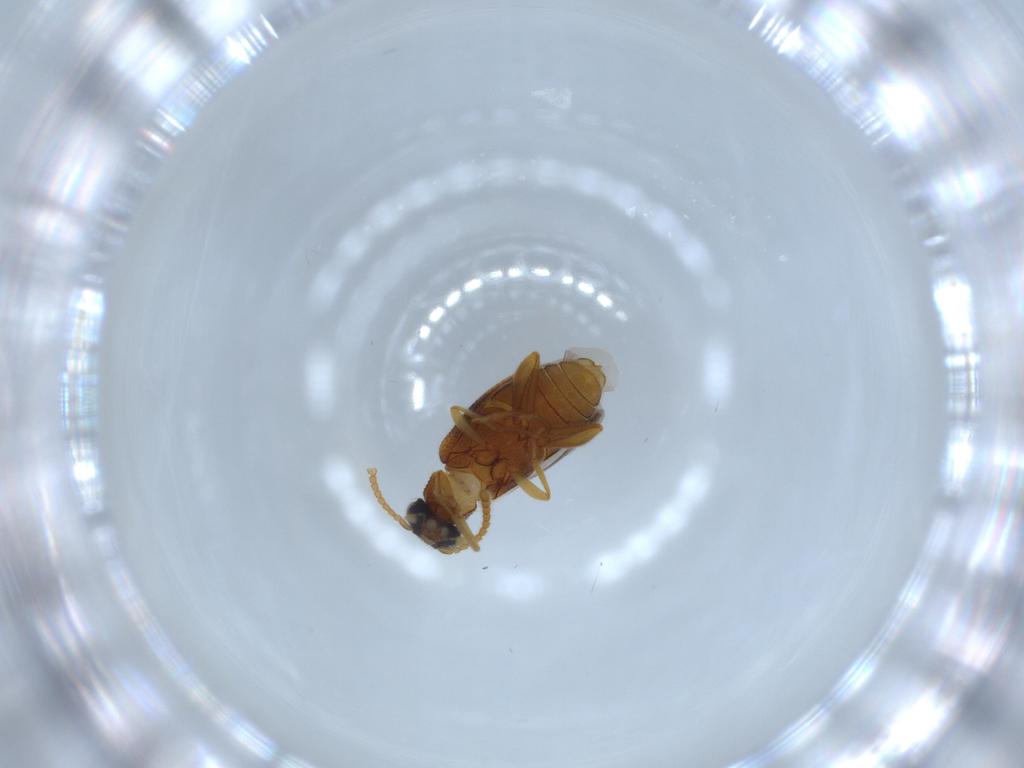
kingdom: Animalia
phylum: Arthropoda
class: Insecta
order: Coleoptera
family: Aderidae
